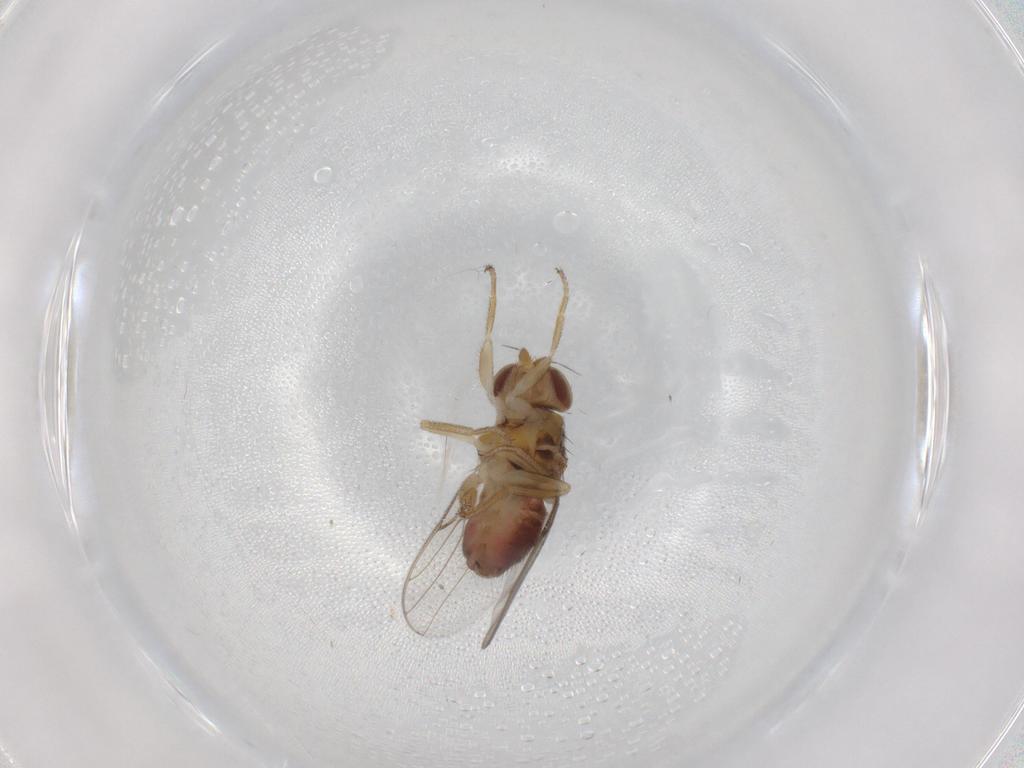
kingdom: Animalia
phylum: Arthropoda
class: Insecta
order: Diptera
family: Chloropidae
